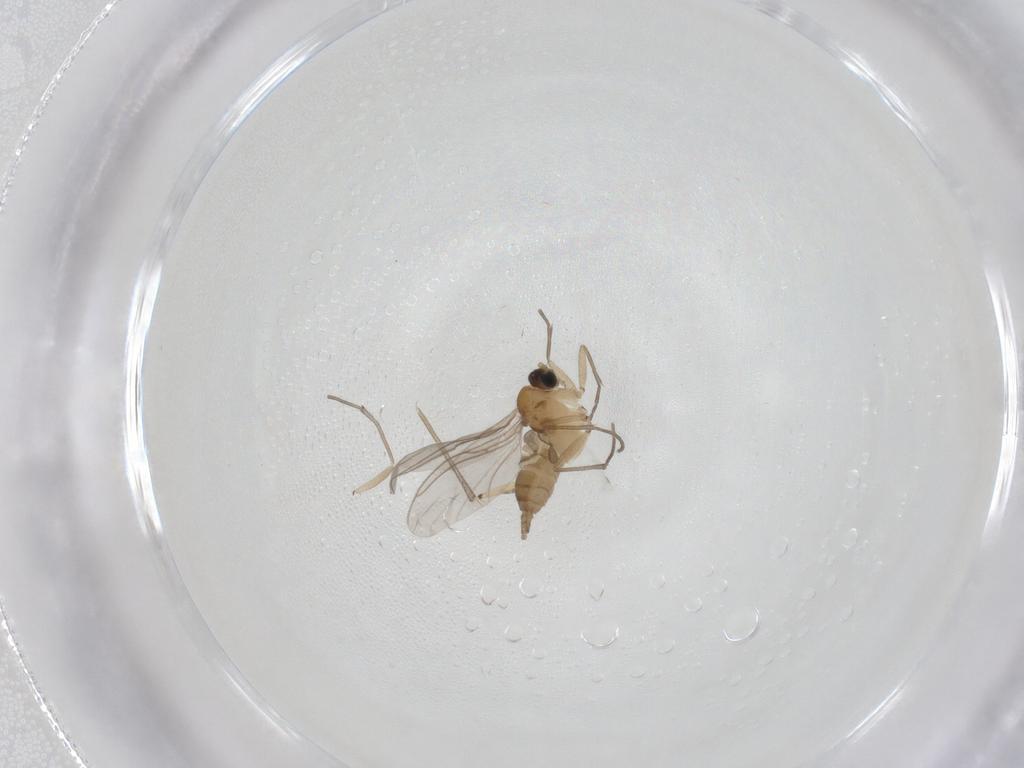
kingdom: Animalia
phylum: Arthropoda
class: Insecta
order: Diptera
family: Sciaridae
